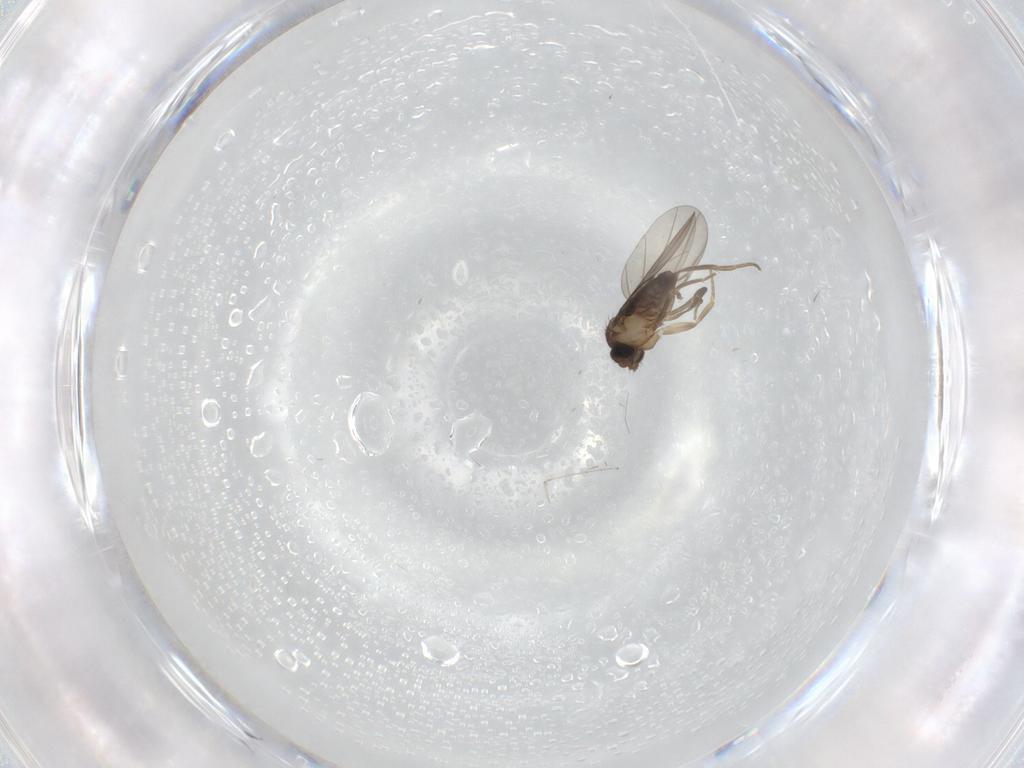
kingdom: Animalia
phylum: Arthropoda
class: Insecta
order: Diptera
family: Phoridae
